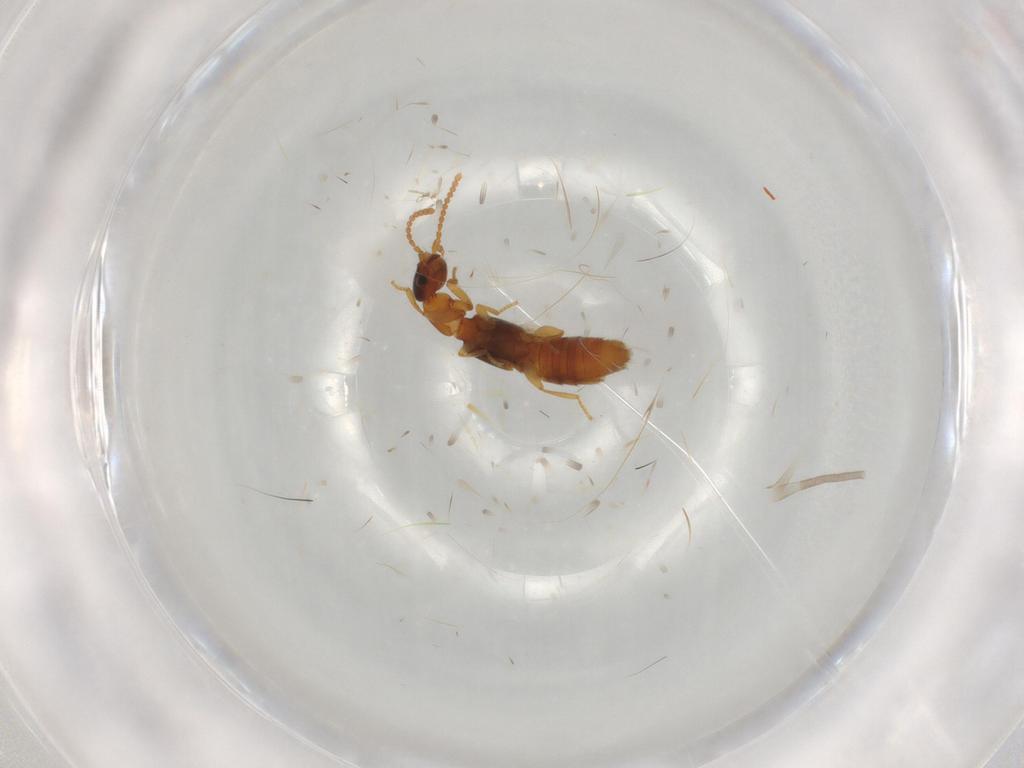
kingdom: Animalia
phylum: Arthropoda
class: Insecta
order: Coleoptera
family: Staphylinidae
